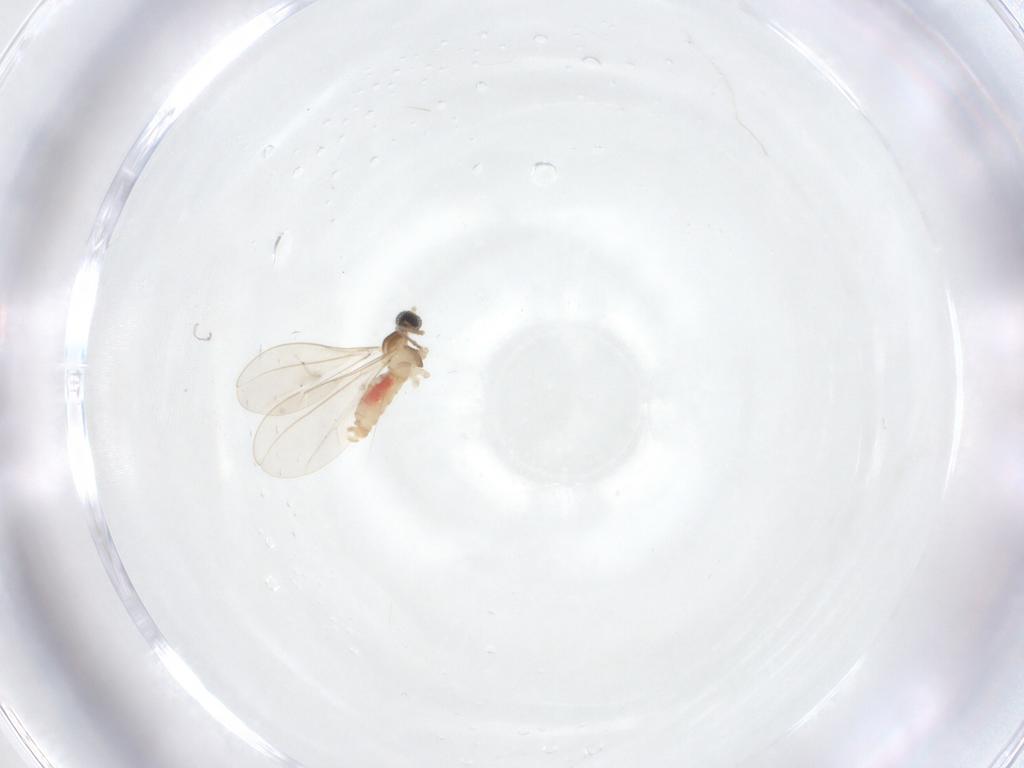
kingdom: Animalia
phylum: Arthropoda
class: Insecta
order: Diptera
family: Cecidomyiidae
